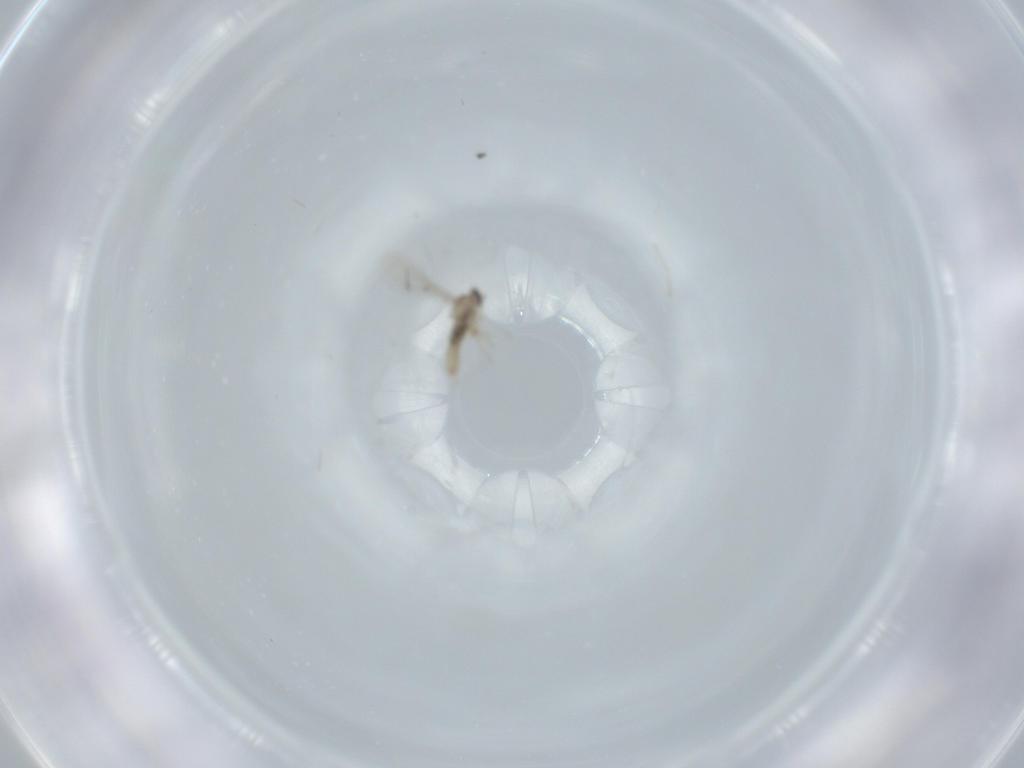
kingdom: Animalia
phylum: Arthropoda
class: Insecta
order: Diptera
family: Pipunculidae
